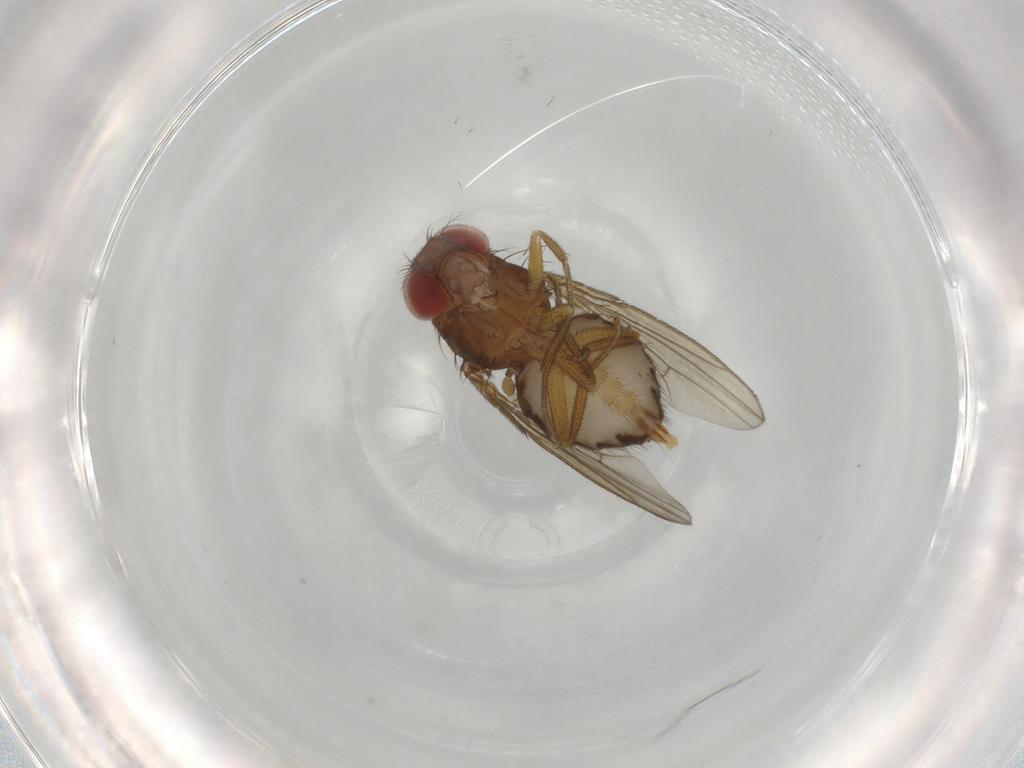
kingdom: Animalia
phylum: Arthropoda
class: Insecta
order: Diptera
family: Drosophilidae
